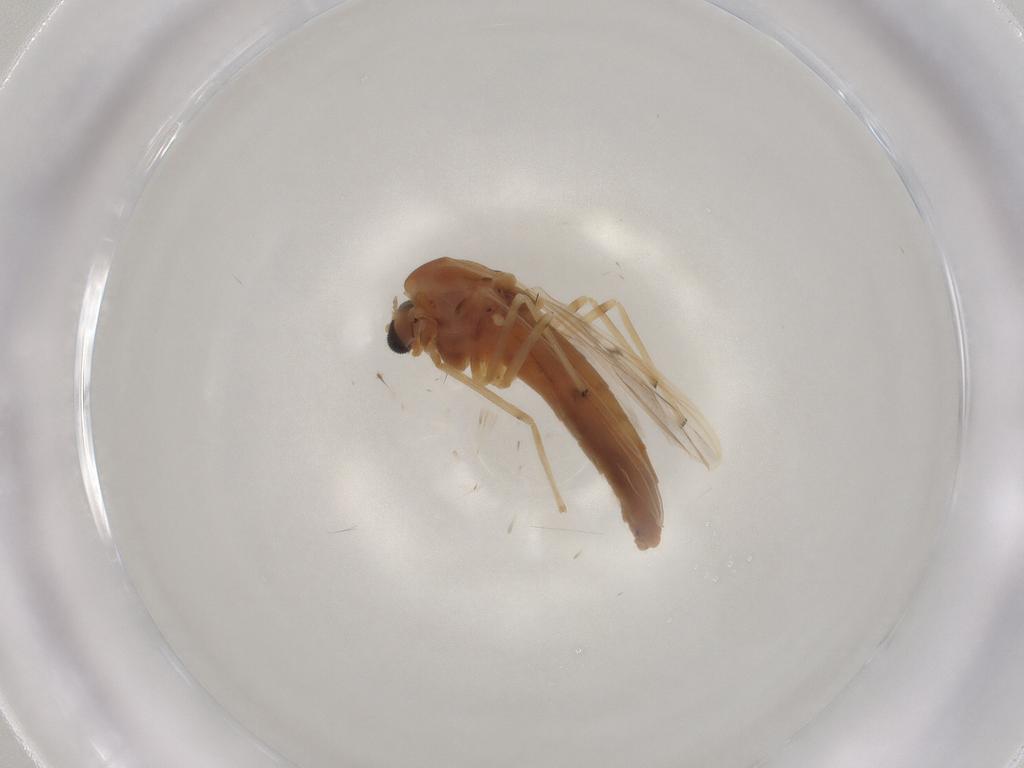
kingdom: Animalia
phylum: Arthropoda
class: Insecta
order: Diptera
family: Chironomidae
